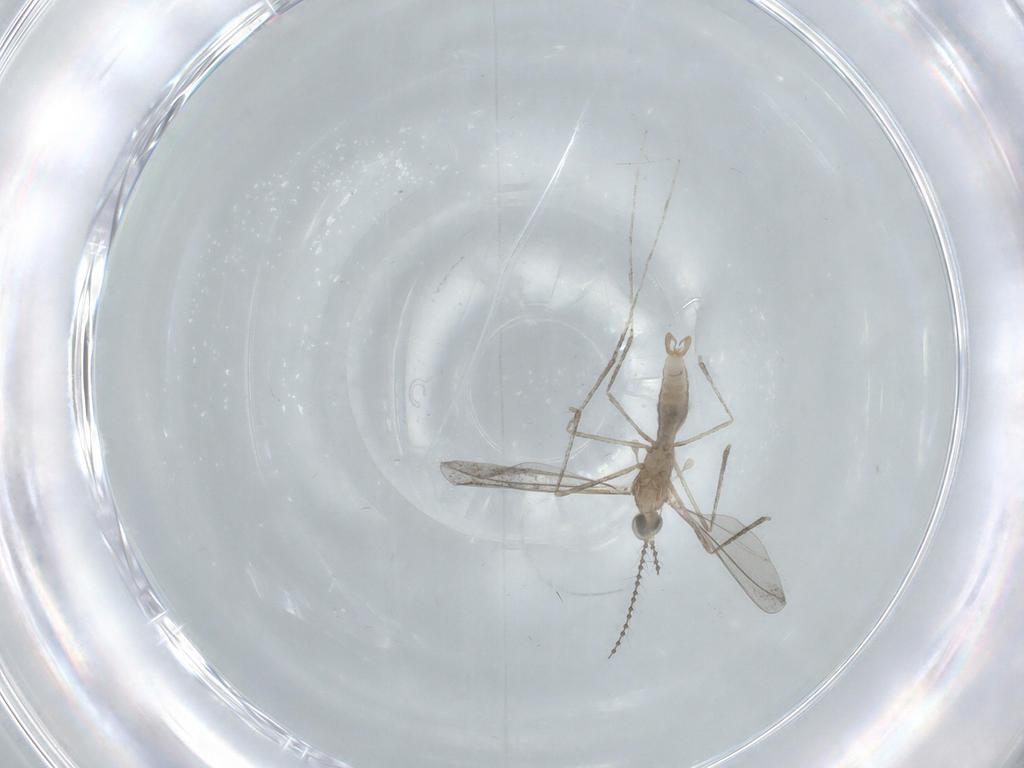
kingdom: Animalia
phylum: Arthropoda
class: Insecta
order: Diptera
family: Cecidomyiidae
